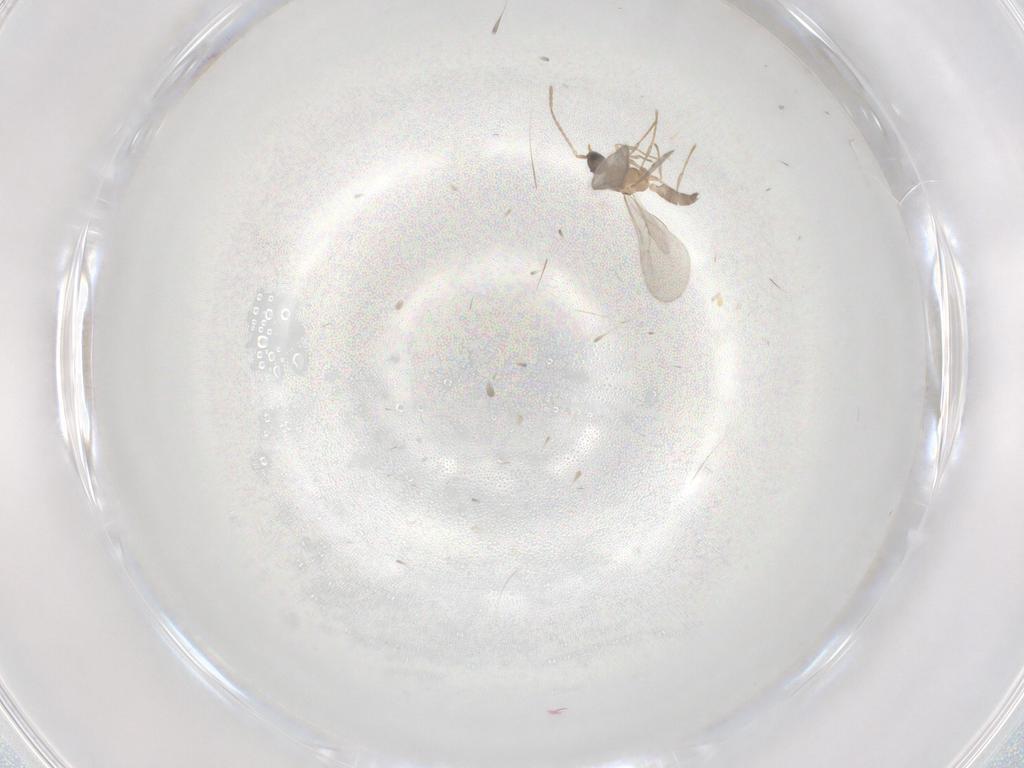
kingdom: Animalia
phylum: Arthropoda
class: Insecta
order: Hymenoptera
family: Formicidae
